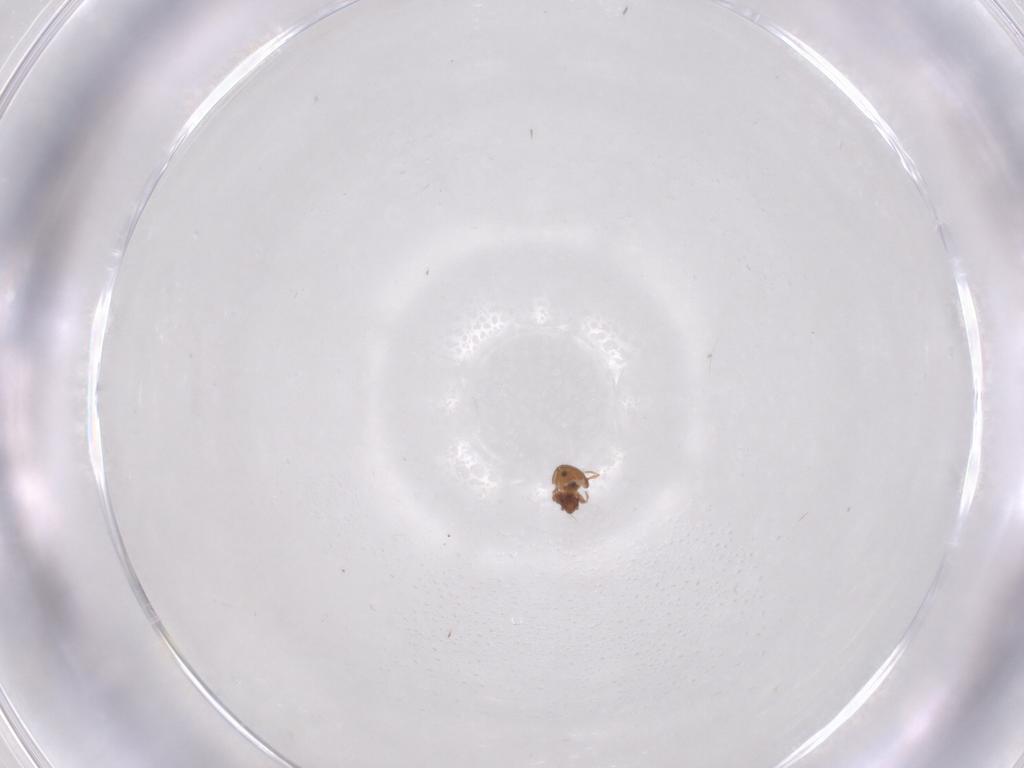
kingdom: Animalia
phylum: Arthropoda
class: Arachnida
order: Sarcoptiformes
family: Oribatulidae
